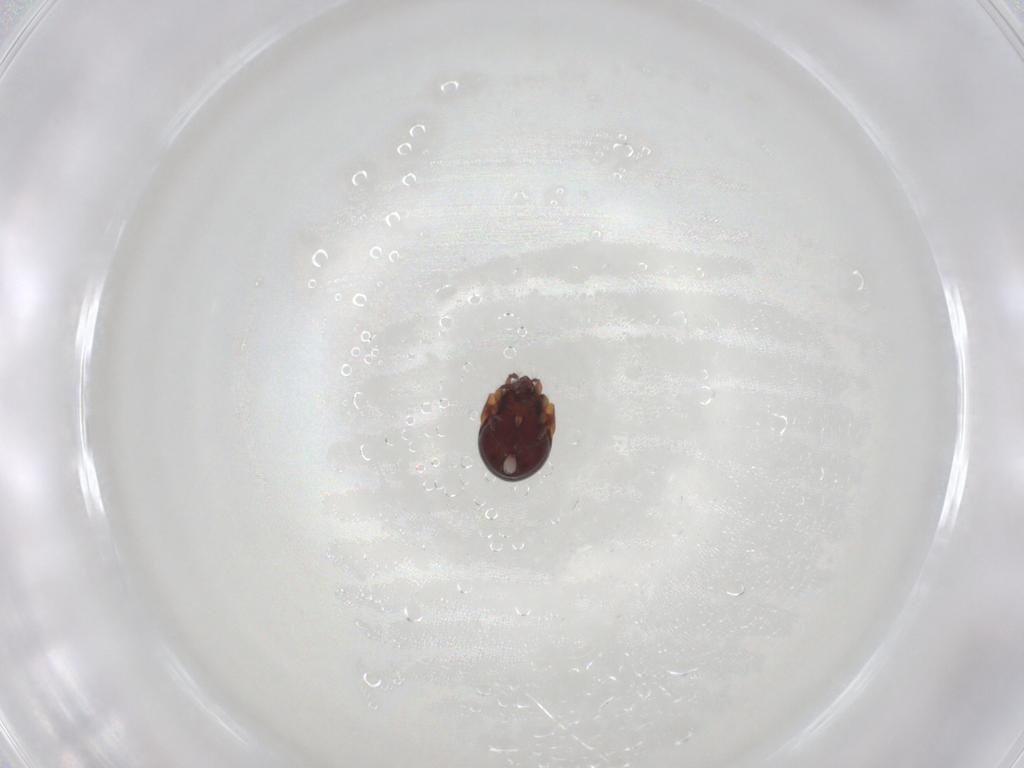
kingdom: Animalia
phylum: Arthropoda
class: Arachnida
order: Sarcoptiformes
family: Humerobatidae
